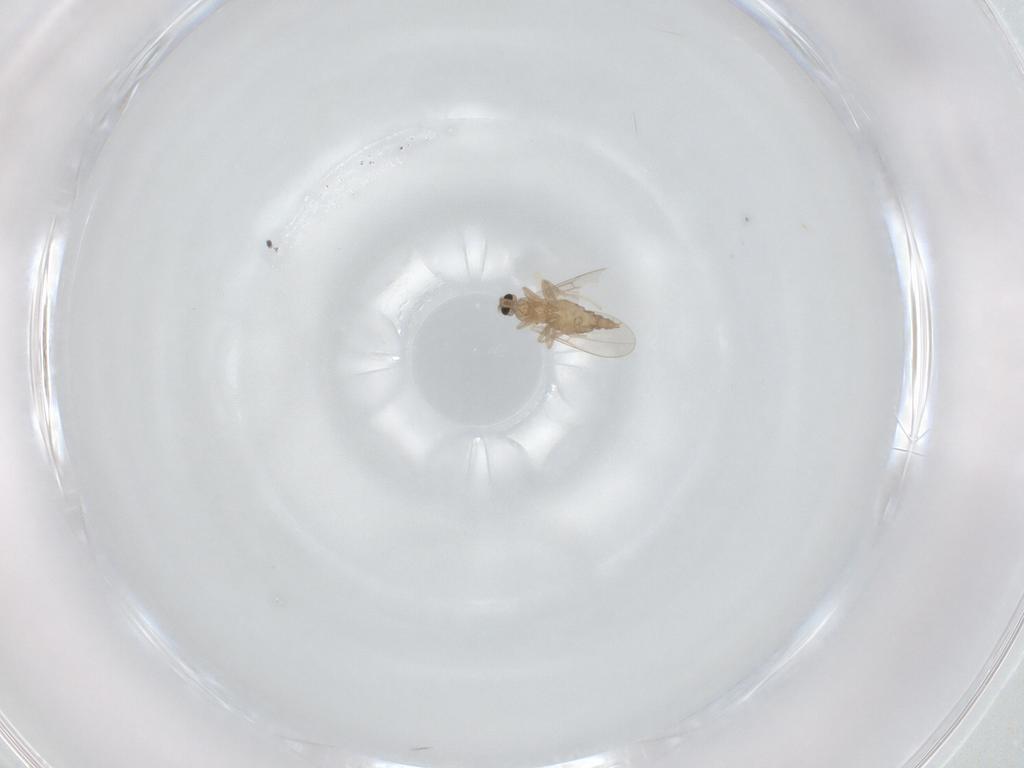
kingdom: Animalia
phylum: Arthropoda
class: Insecta
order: Diptera
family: Cecidomyiidae
